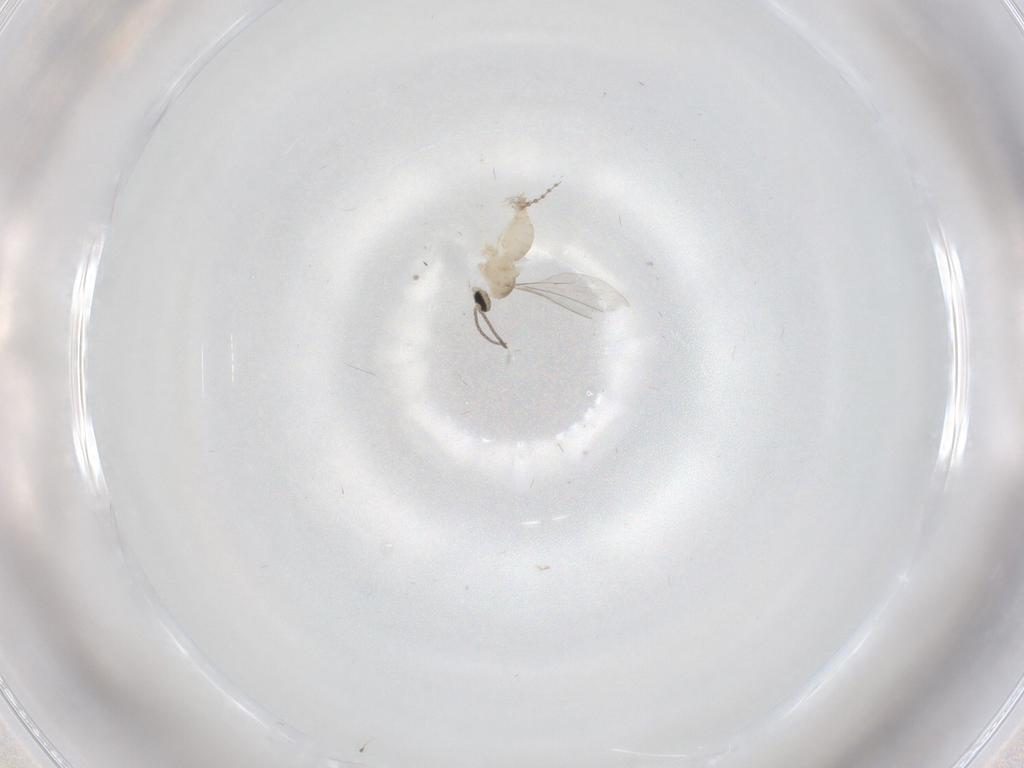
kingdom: Animalia
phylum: Arthropoda
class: Insecta
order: Diptera
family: Cecidomyiidae
